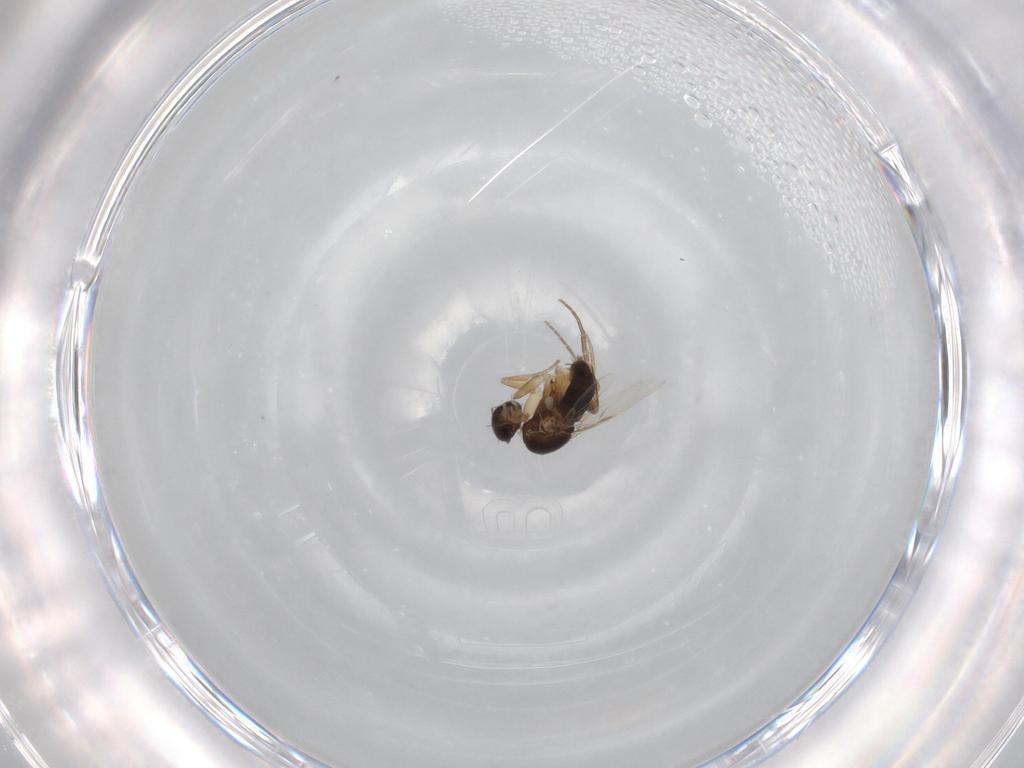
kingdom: Animalia
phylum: Arthropoda
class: Insecta
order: Diptera
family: Phoridae
